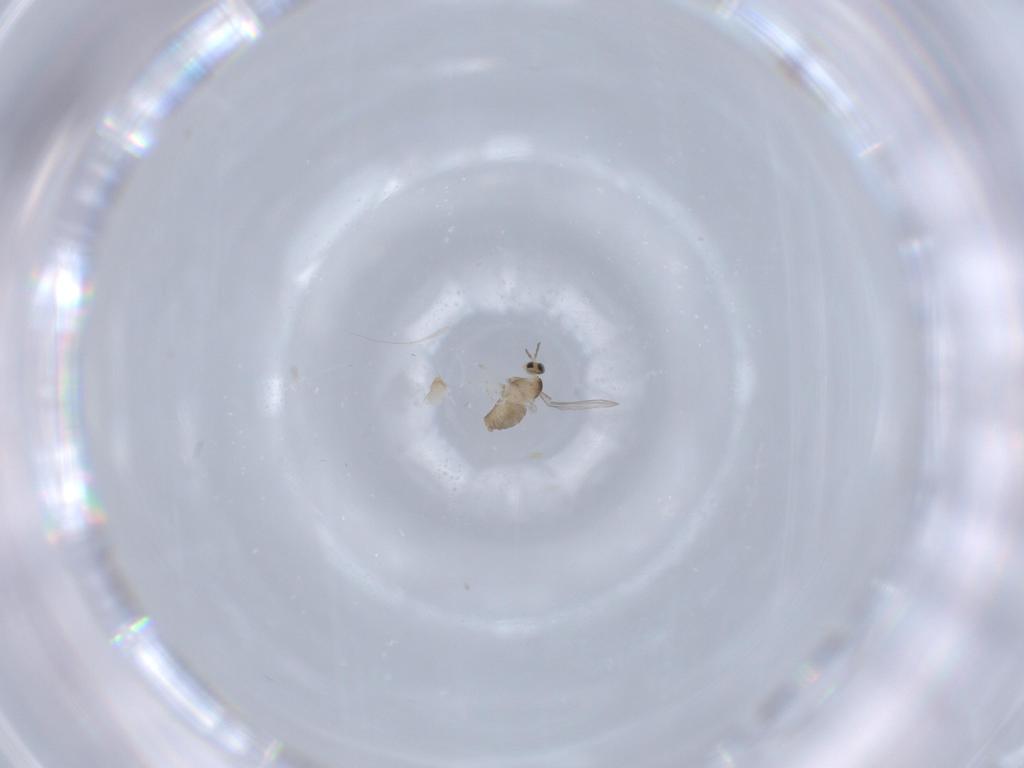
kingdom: Animalia
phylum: Arthropoda
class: Insecta
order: Diptera
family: Cecidomyiidae
